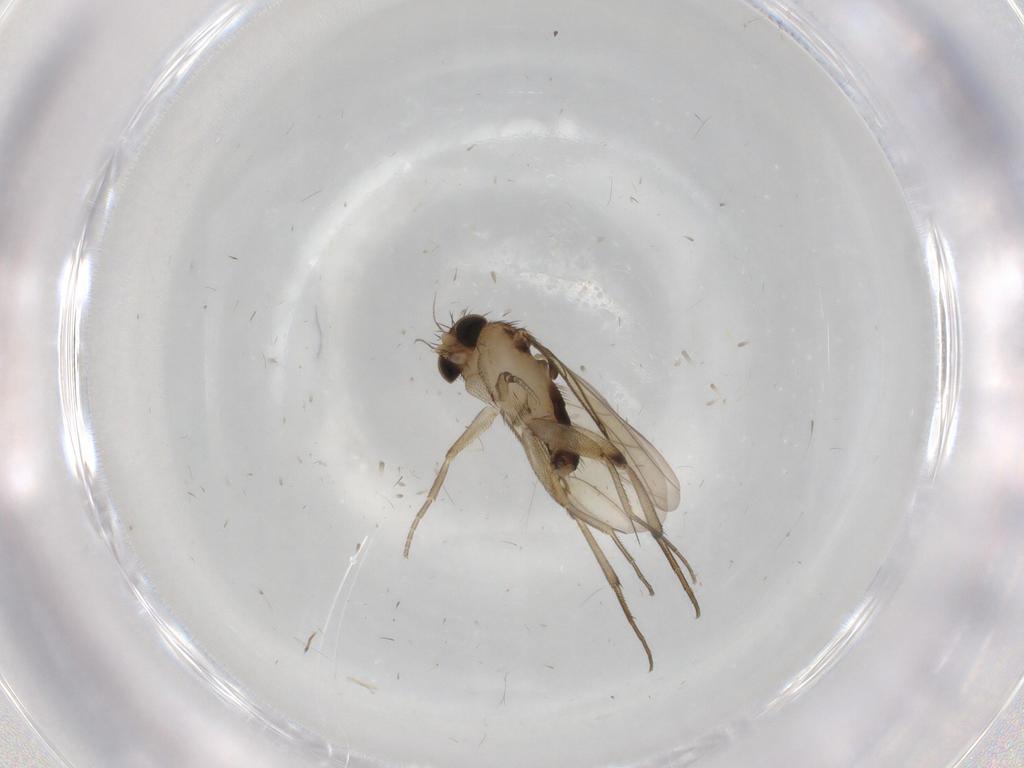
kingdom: Animalia
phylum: Arthropoda
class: Insecta
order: Diptera
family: Phoridae
